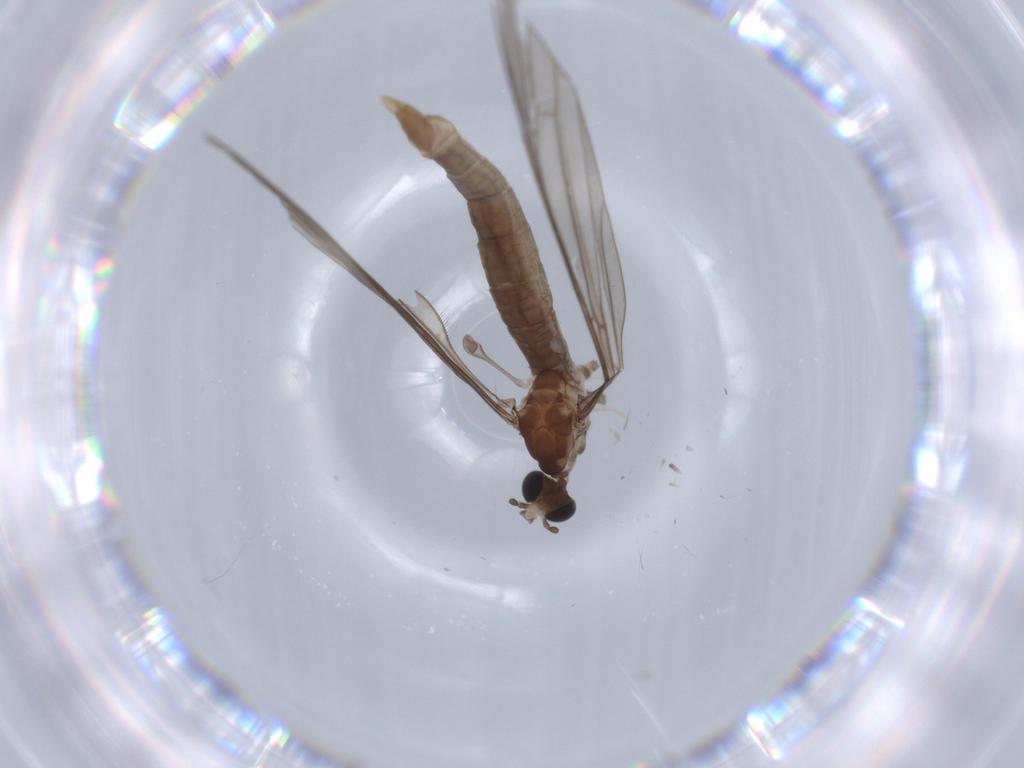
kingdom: Animalia
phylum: Arthropoda
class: Insecta
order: Diptera
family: Limoniidae
